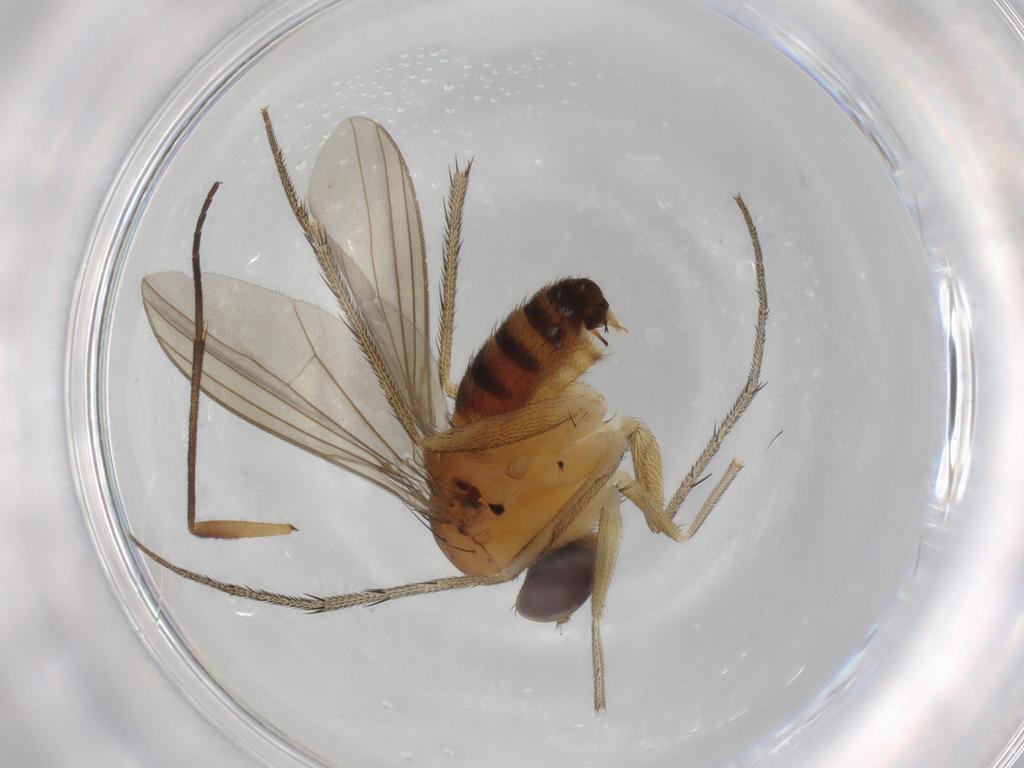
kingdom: Animalia
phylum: Arthropoda
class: Insecta
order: Diptera
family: Dolichopodidae
